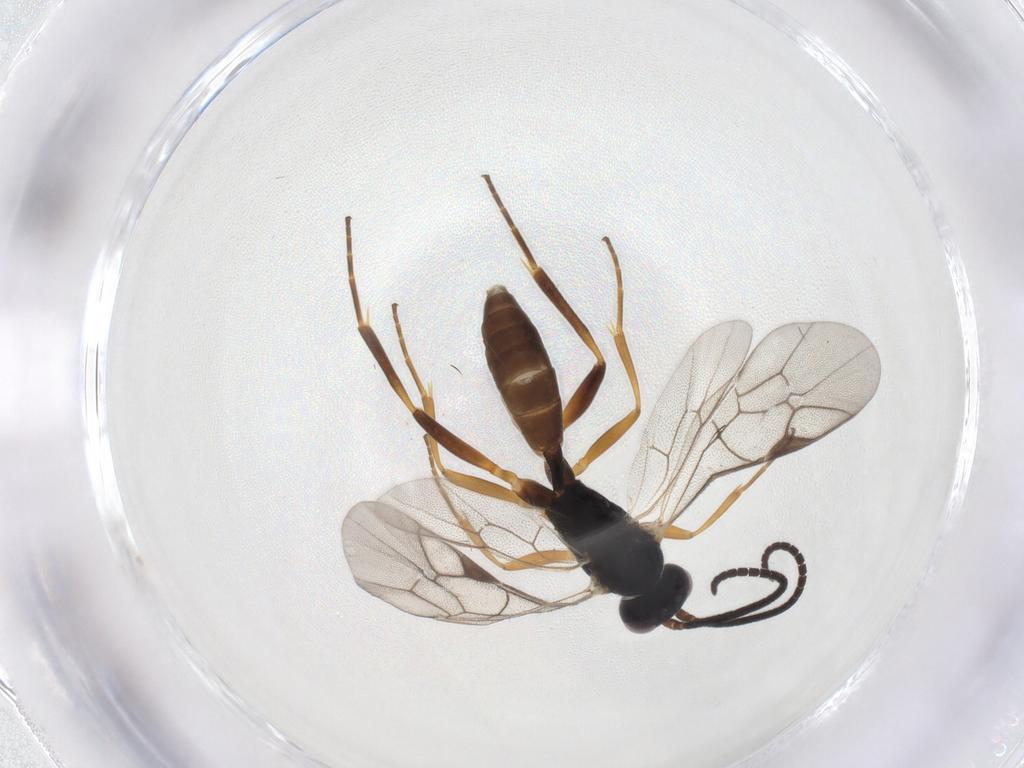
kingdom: Animalia
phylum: Arthropoda
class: Insecta
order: Hymenoptera
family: Ichneumonidae
